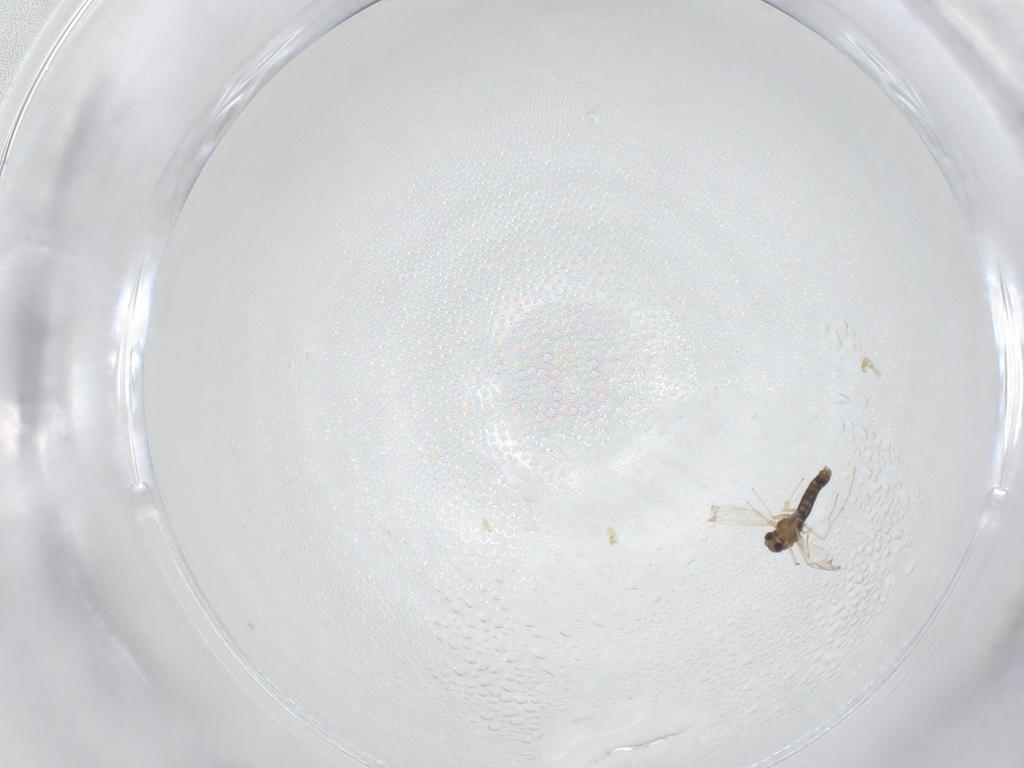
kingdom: Animalia
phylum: Arthropoda
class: Insecta
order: Diptera
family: Chironomidae
